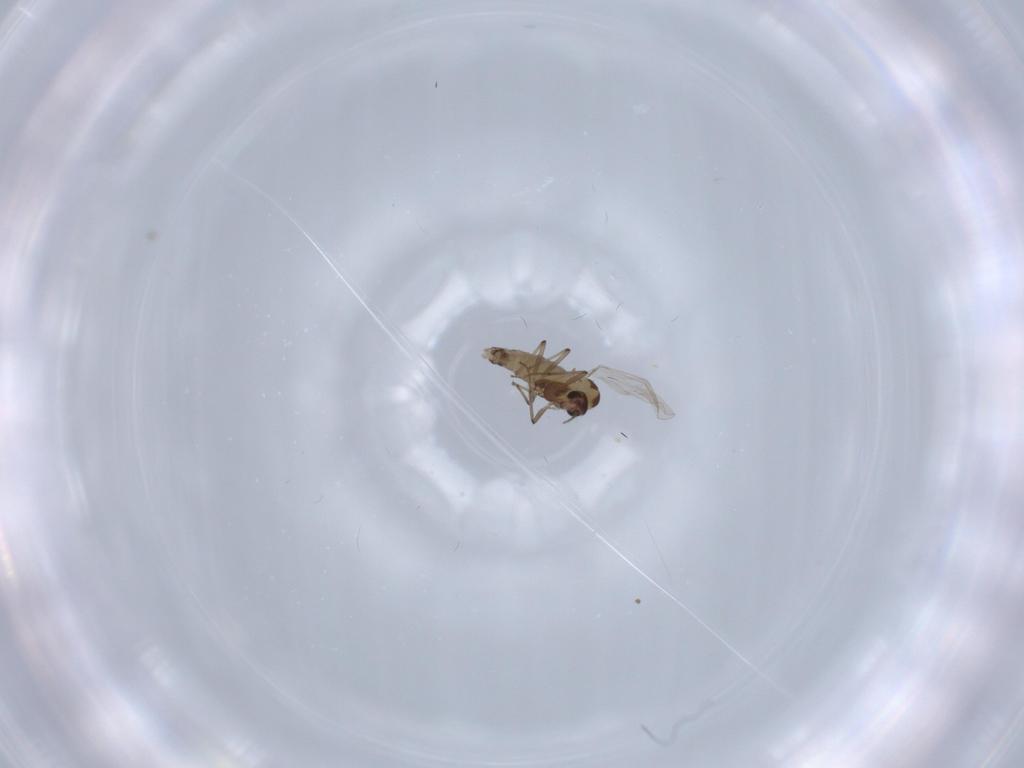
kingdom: Animalia
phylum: Arthropoda
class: Insecta
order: Diptera
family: Chironomidae
